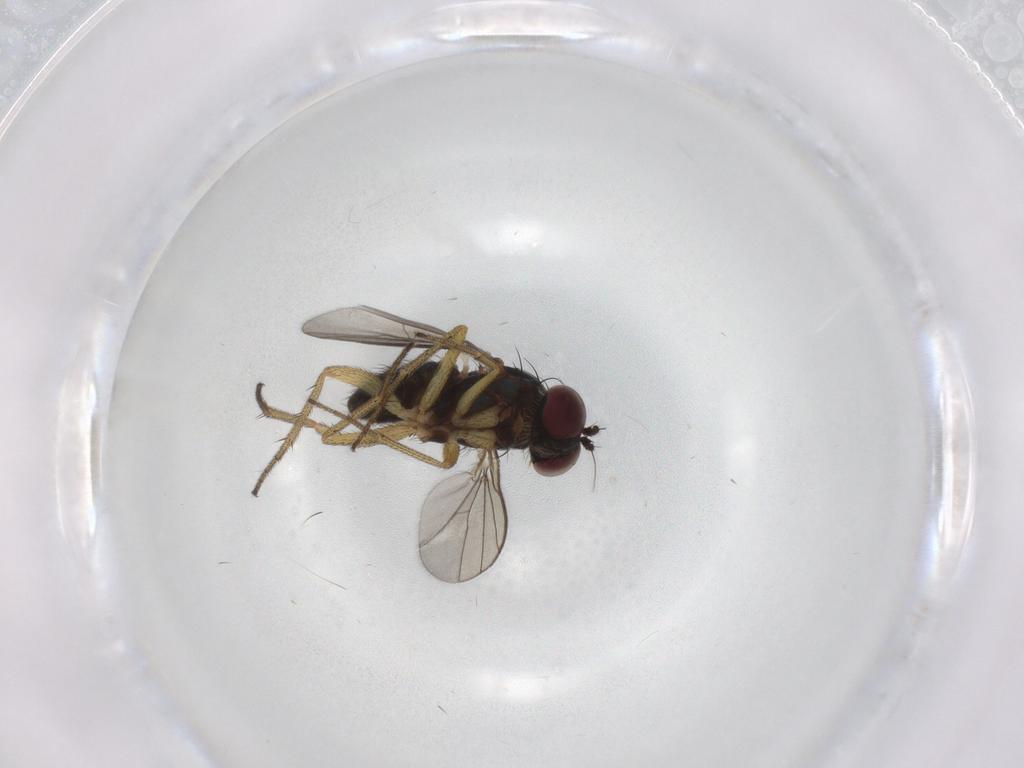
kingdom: Animalia
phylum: Arthropoda
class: Insecta
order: Diptera
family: Dolichopodidae
